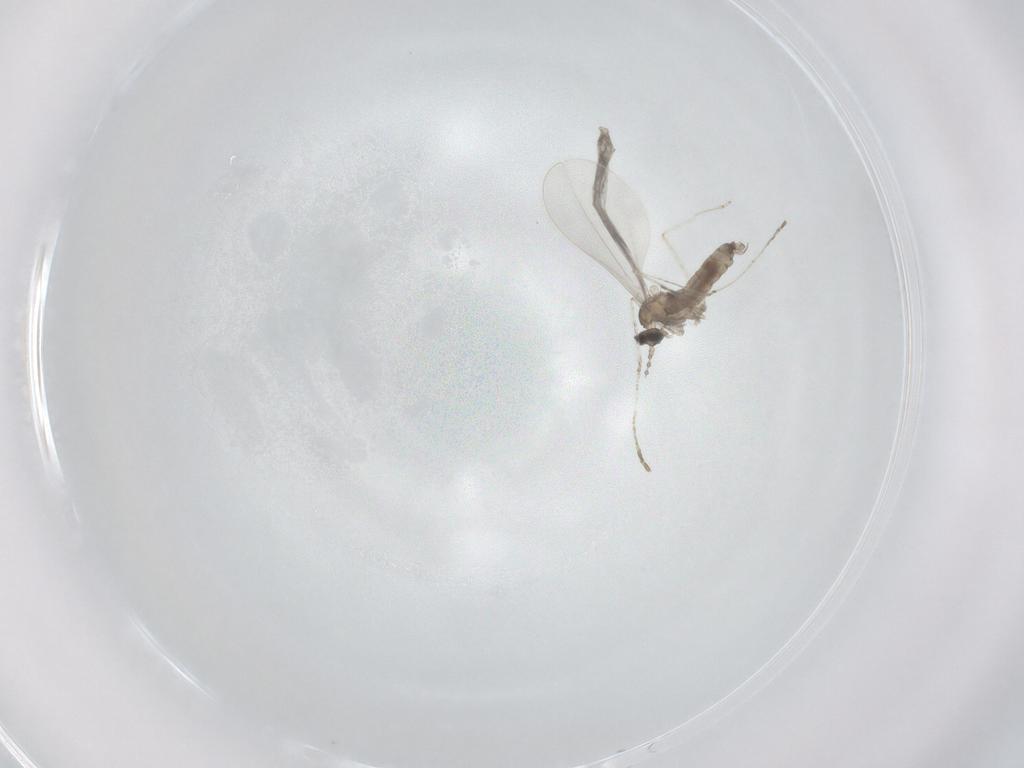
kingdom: Animalia
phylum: Arthropoda
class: Insecta
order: Diptera
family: Cecidomyiidae
